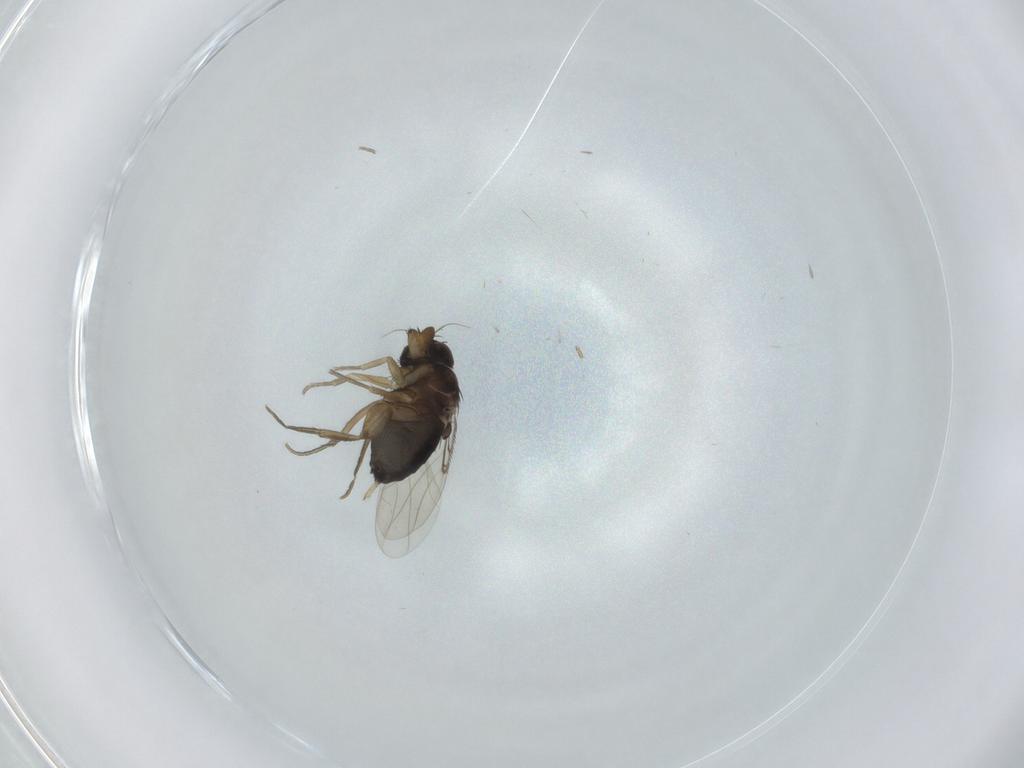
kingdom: Animalia
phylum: Arthropoda
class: Insecta
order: Diptera
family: Phoridae
